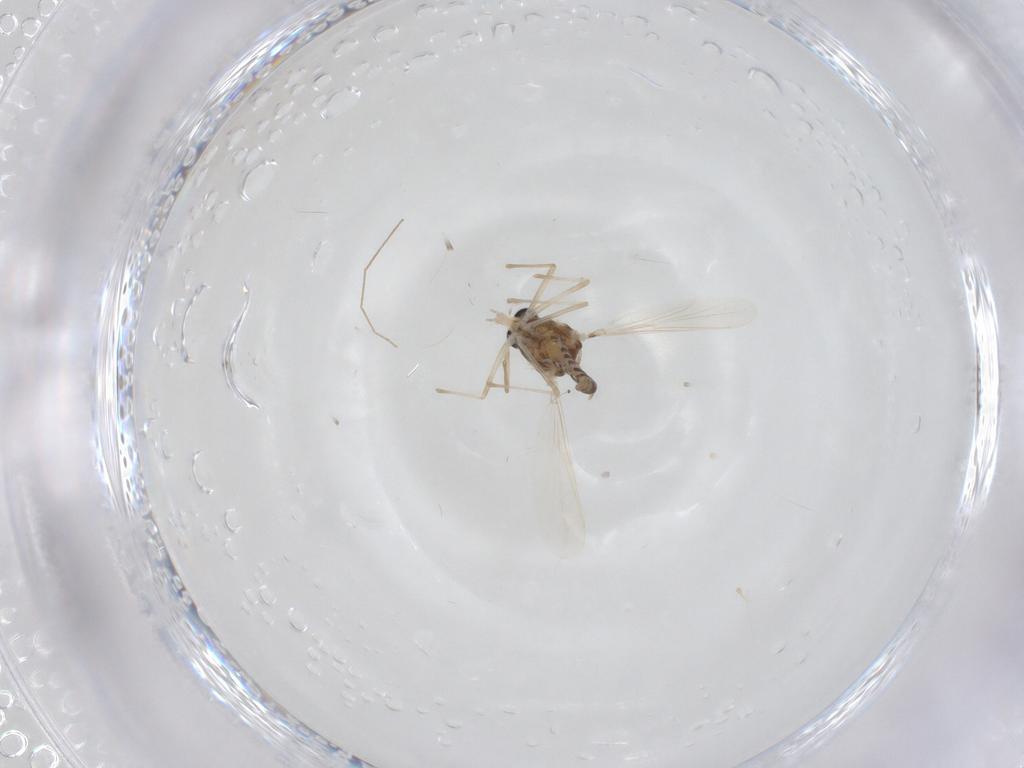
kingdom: Animalia
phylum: Arthropoda
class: Insecta
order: Diptera
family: Chironomidae
